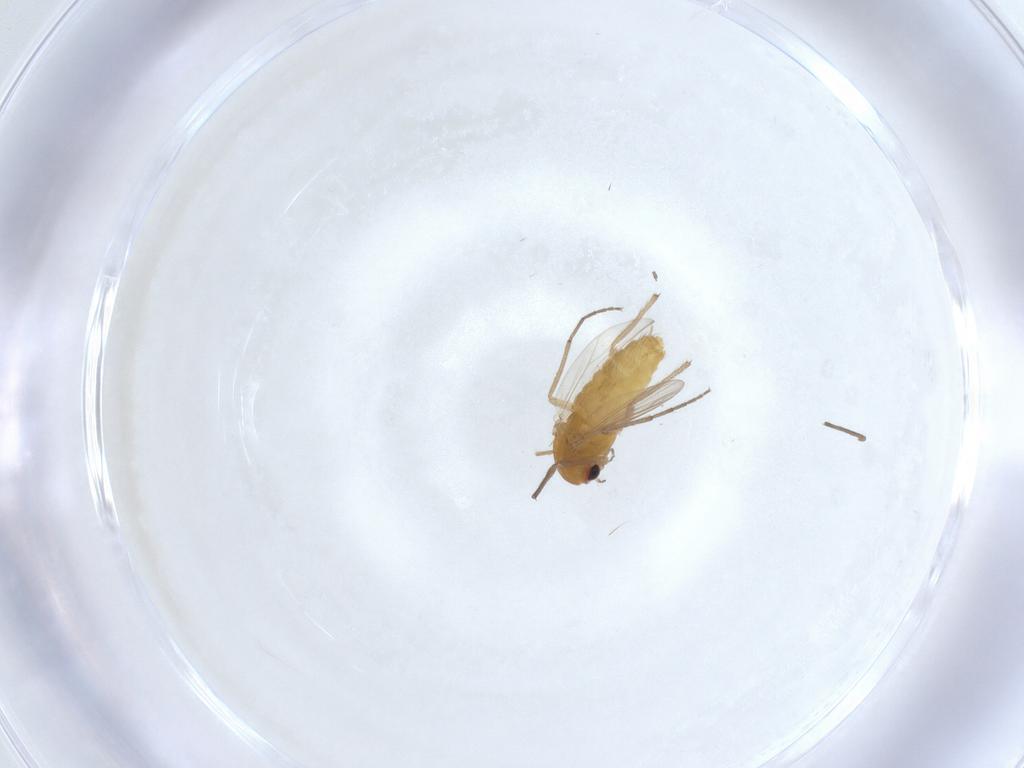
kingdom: Animalia
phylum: Arthropoda
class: Insecta
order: Diptera
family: Chironomidae
